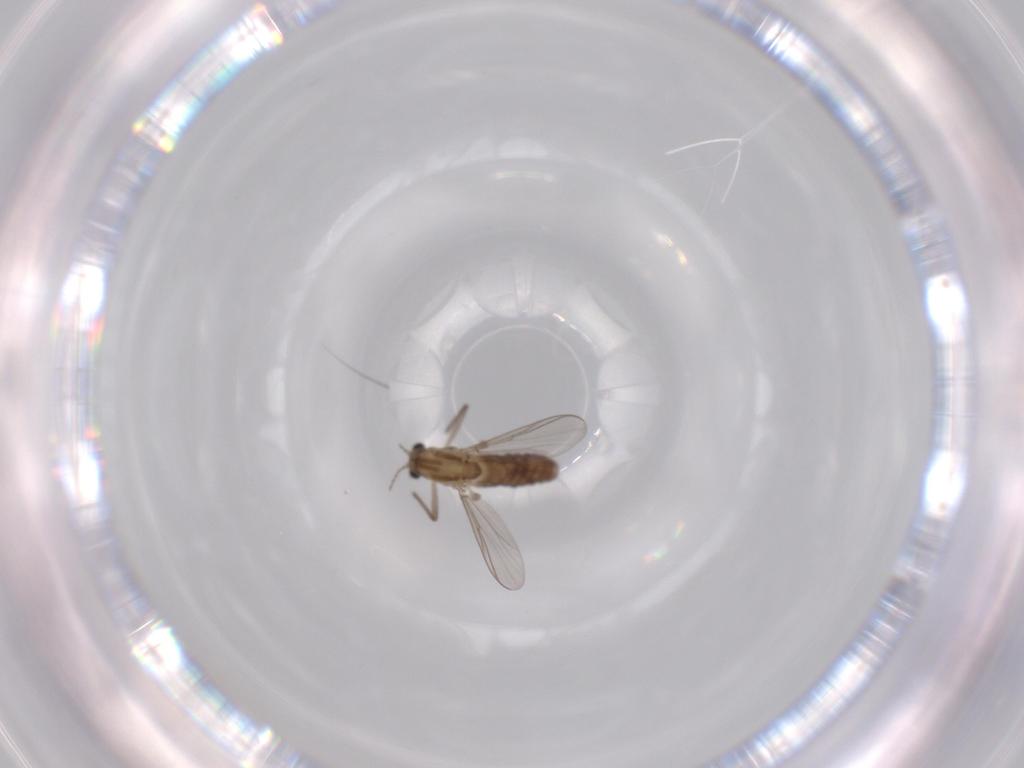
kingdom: Animalia
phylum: Arthropoda
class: Insecta
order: Diptera
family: Chironomidae
